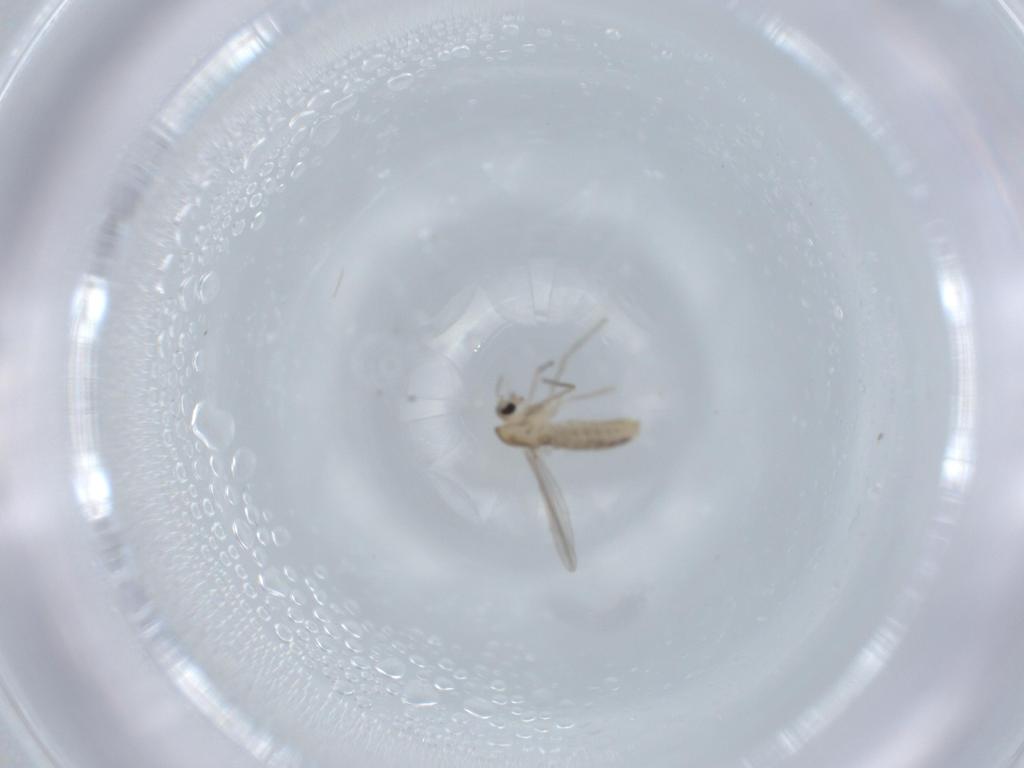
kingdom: Animalia
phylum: Arthropoda
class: Insecta
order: Diptera
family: Chironomidae
